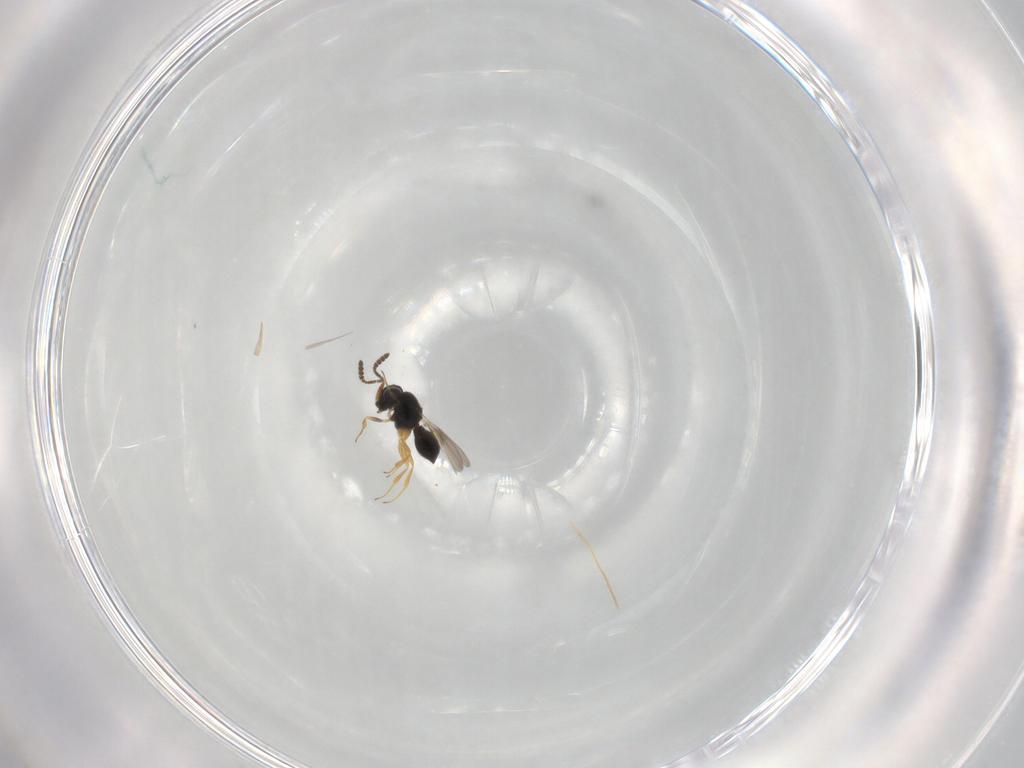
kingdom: Animalia
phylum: Arthropoda
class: Insecta
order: Hymenoptera
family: Scelionidae
